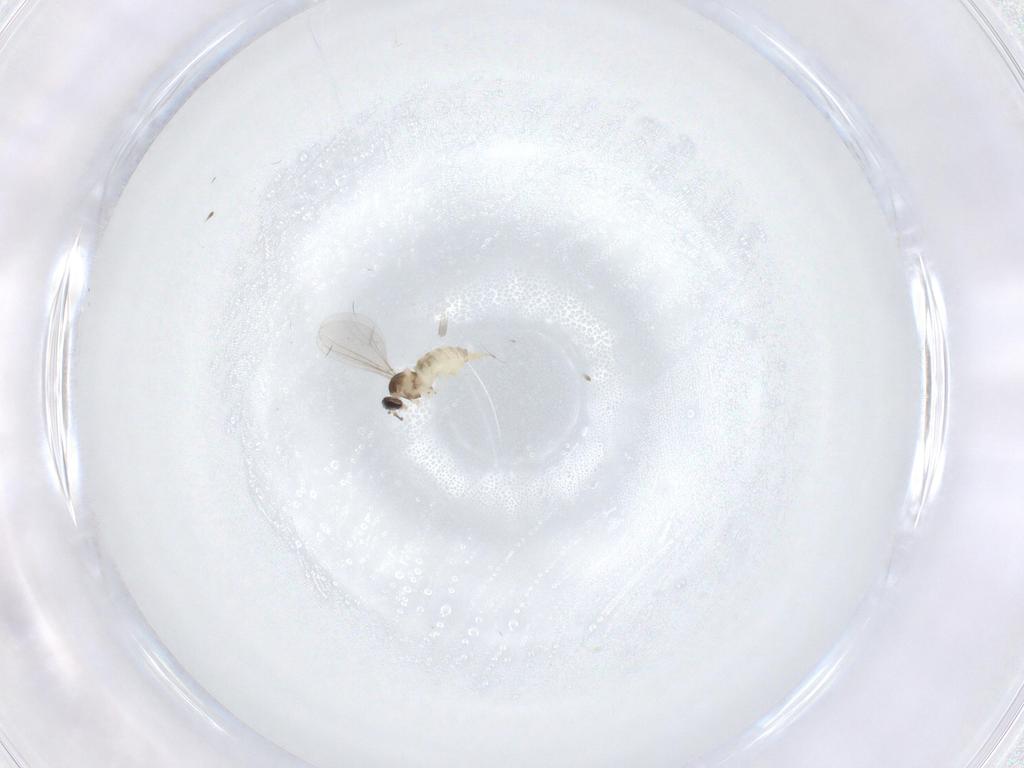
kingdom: Animalia
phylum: Arthropoda
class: Insecta
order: Diptera
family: Cecidomyiidae
